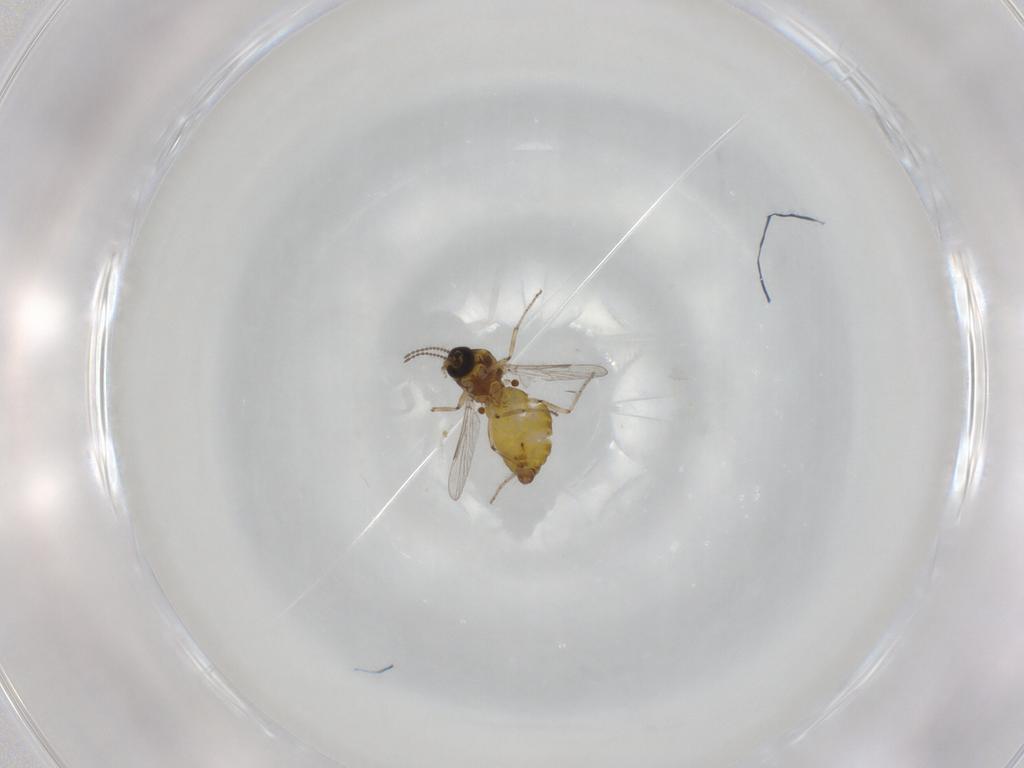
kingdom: Animalia
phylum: Arthropoda
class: Insecta
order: Diptera
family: Ceratopogonidae
